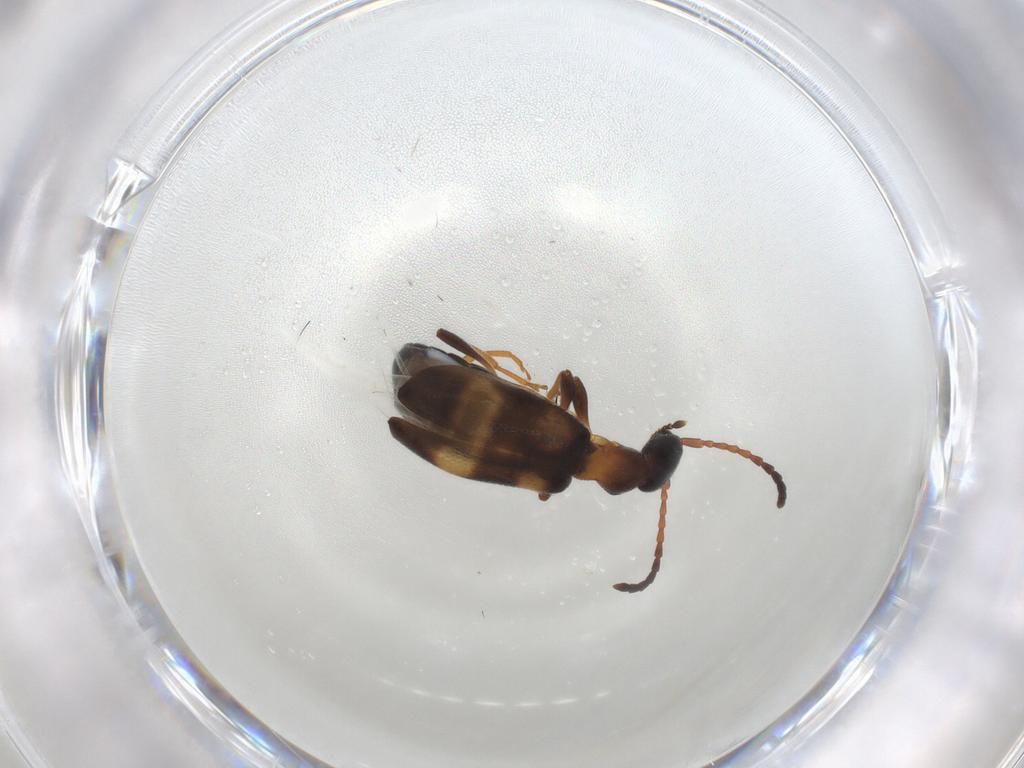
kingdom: Animalia
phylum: Arthropoda
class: Insecta
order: Coleoptera
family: Anthicidae
